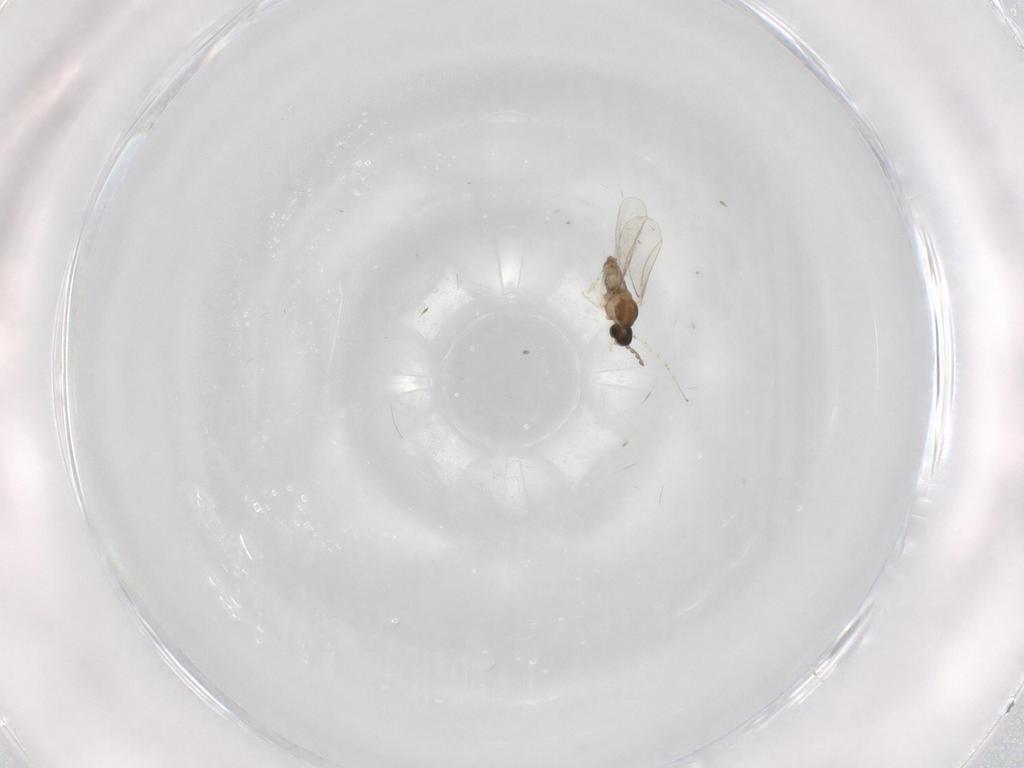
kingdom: Animalia
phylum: Arthropoda
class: Insecta
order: Diptera
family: Cecidomyiidae
